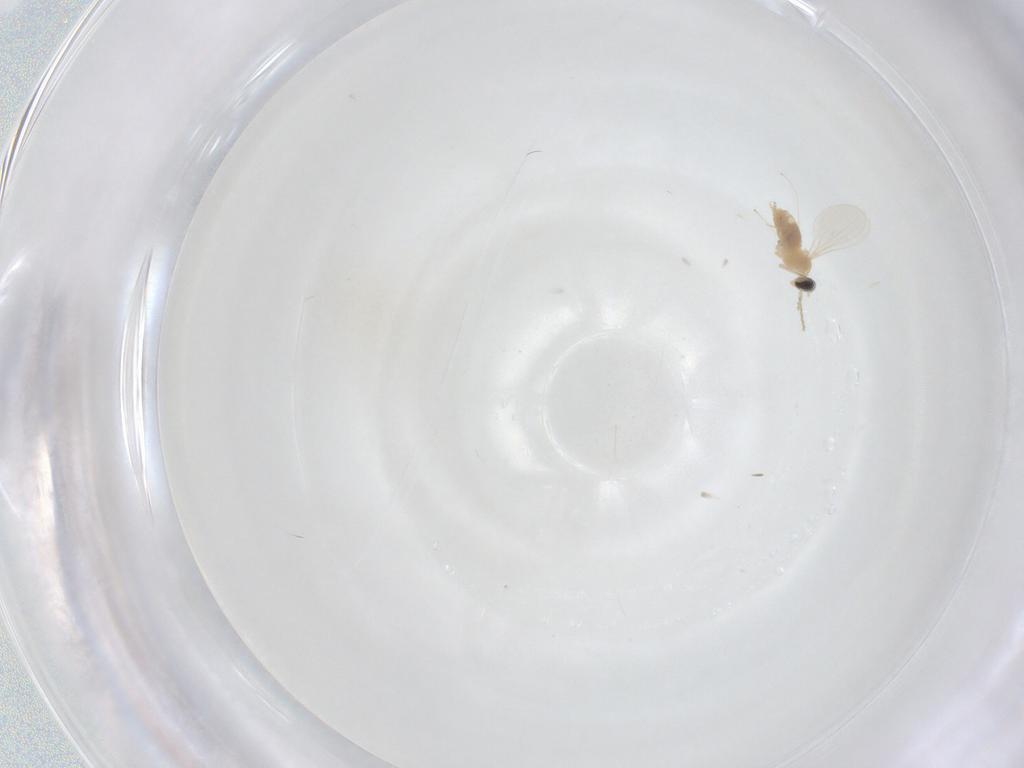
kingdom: Animalia
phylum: Arthropoda
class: Insecta
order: Diptera
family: Cecidomyiidae
